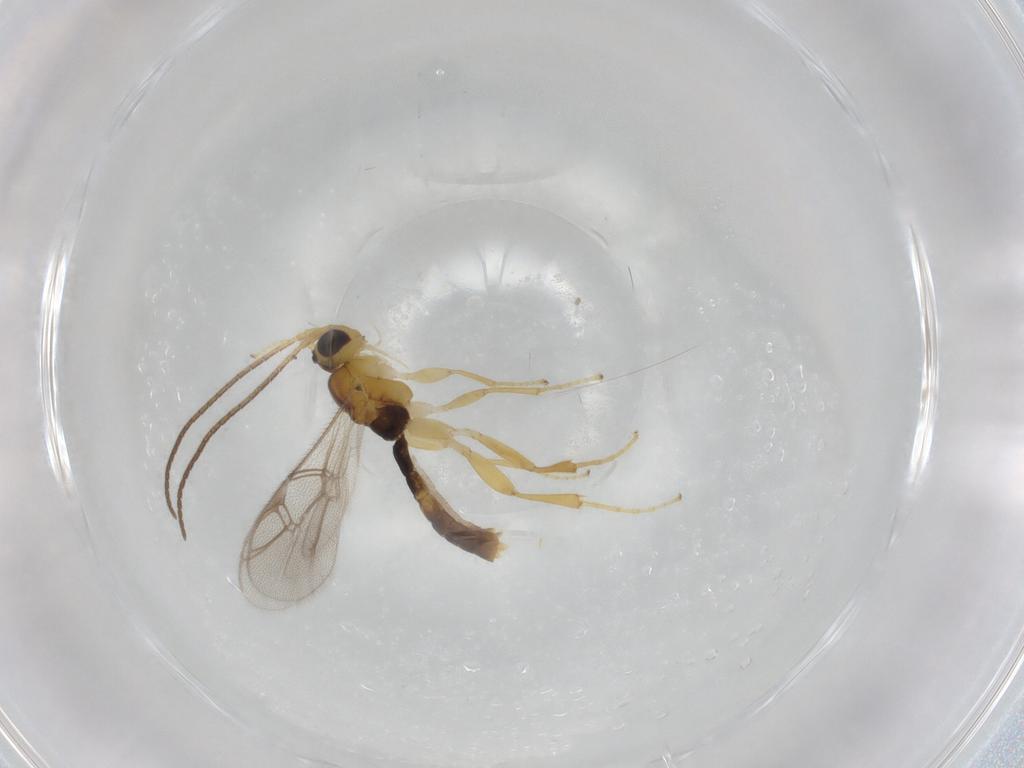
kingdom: Animalia
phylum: Arthropoda
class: Insecta
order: Hymenoptera
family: Ichneumonidae
